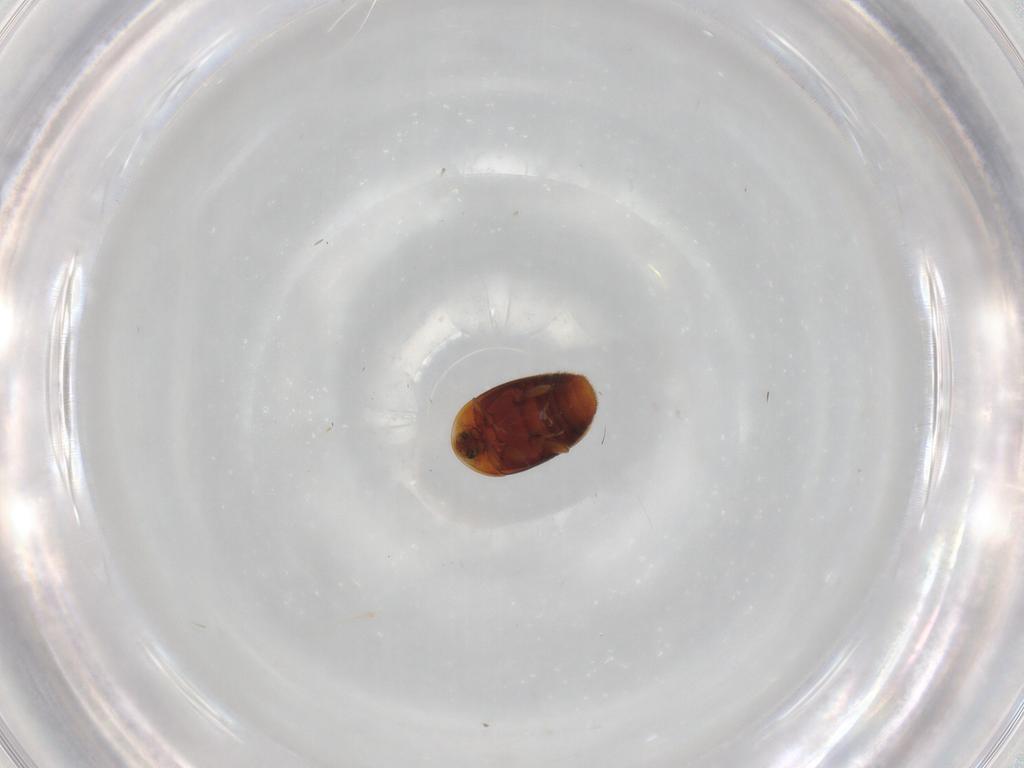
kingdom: Animalia
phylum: Arthropoda
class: Insecta
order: Coleoptera
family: Corylophidae
